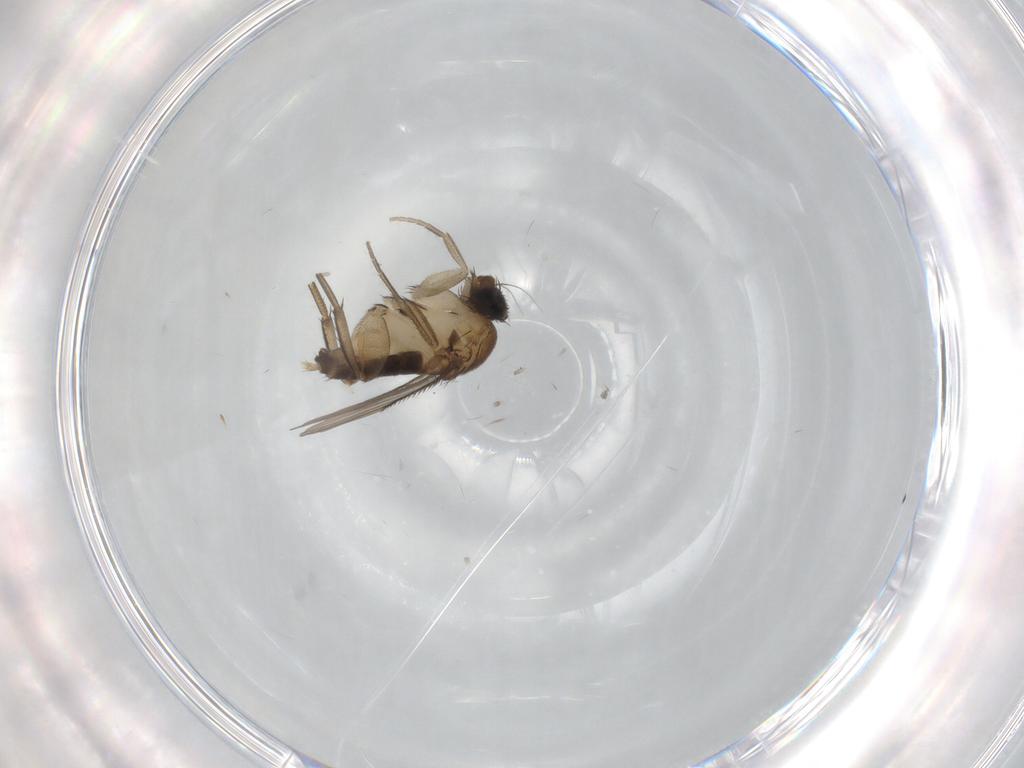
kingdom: Animalia
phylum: Arthropoda
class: Insecta
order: Diptera
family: Phoridae
